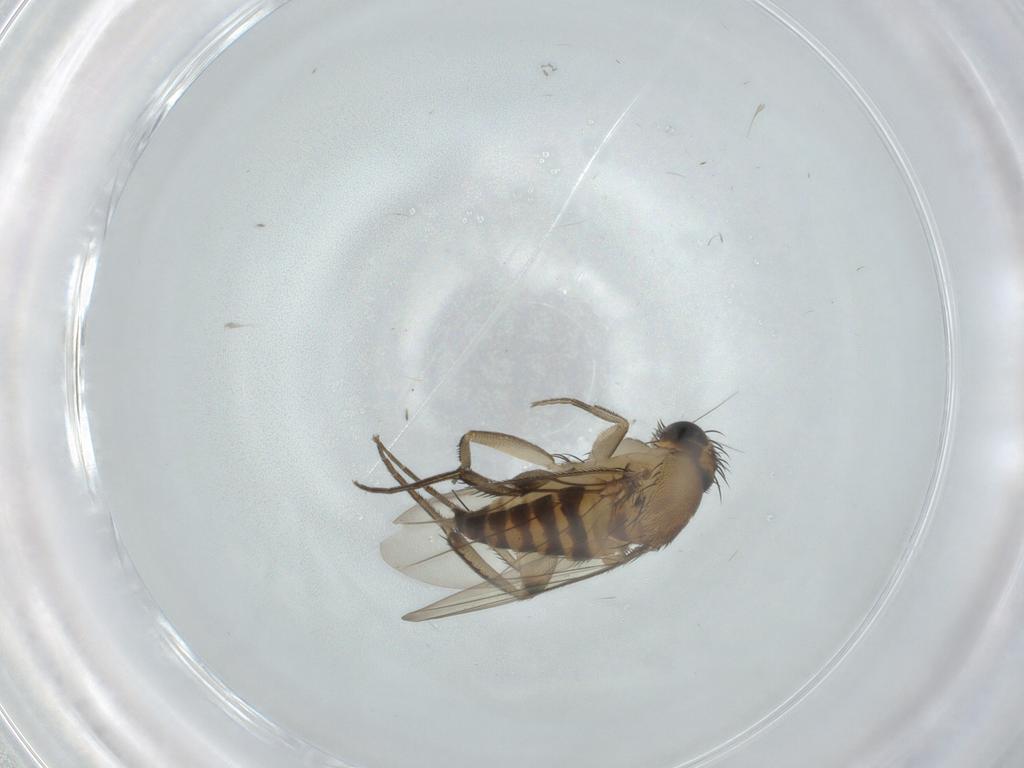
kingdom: Animalia
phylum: Arthropoda
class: Insecta
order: Diptera
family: Phoridae
